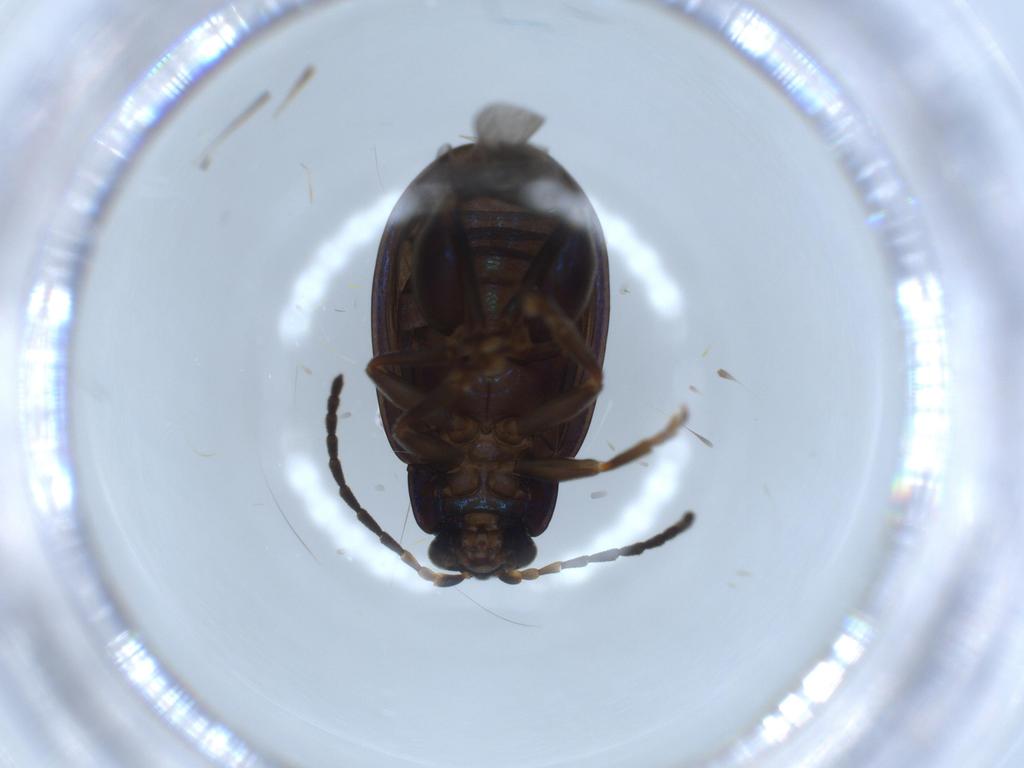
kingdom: Animalia
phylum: Arthropoda
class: Insecta
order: Coleoptera
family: Chrysomelidae
